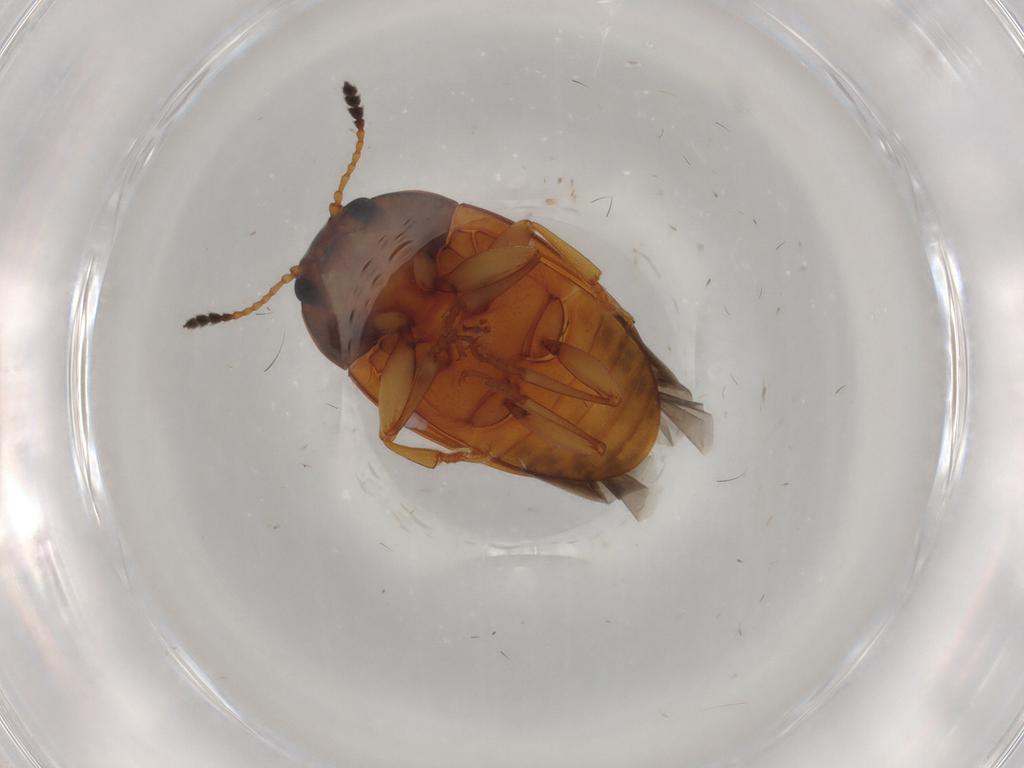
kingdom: Animalia
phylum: Arthropoda
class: Insecta
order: Coleoptera
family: Erotylidae
